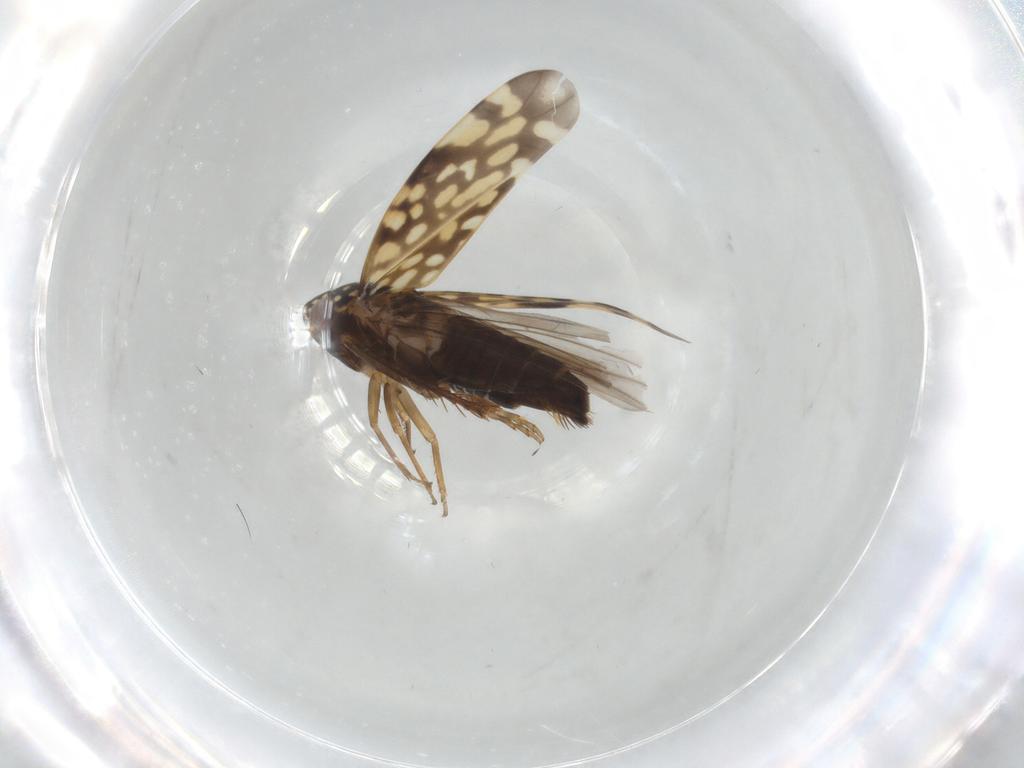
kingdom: Animalia
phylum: Arthropoda
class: Insecta
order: Hemiptera
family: Cicadellidae
